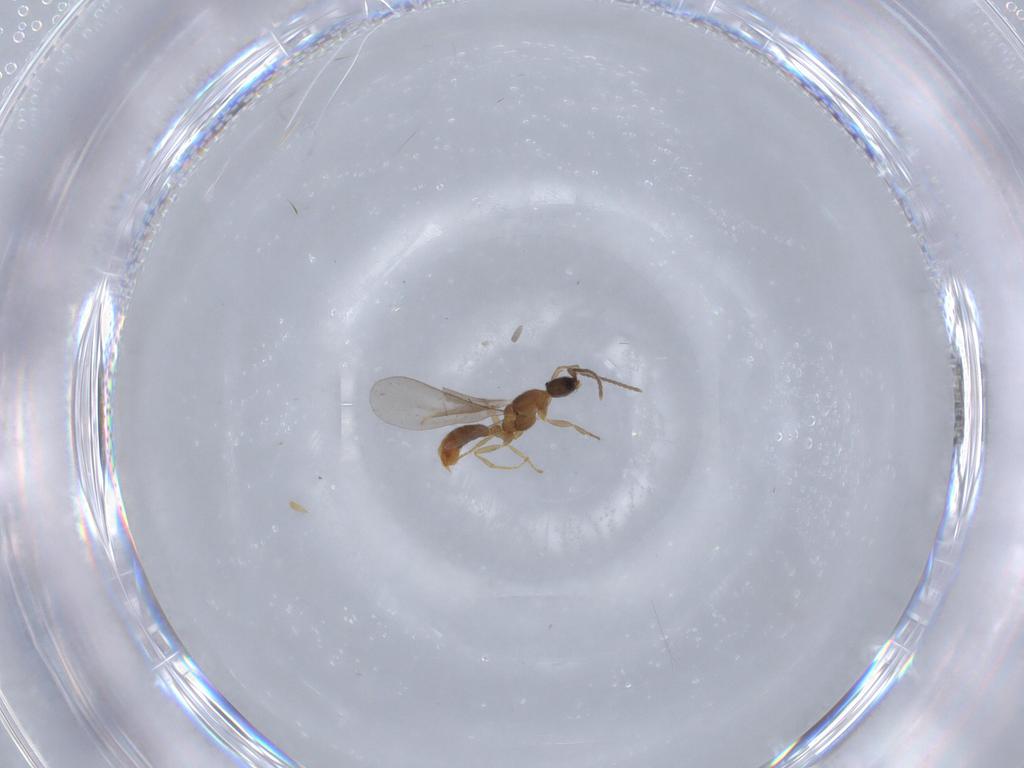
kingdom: Animalia
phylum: Arthropoda
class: Insecta
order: Hymenoptera
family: Formicidae
